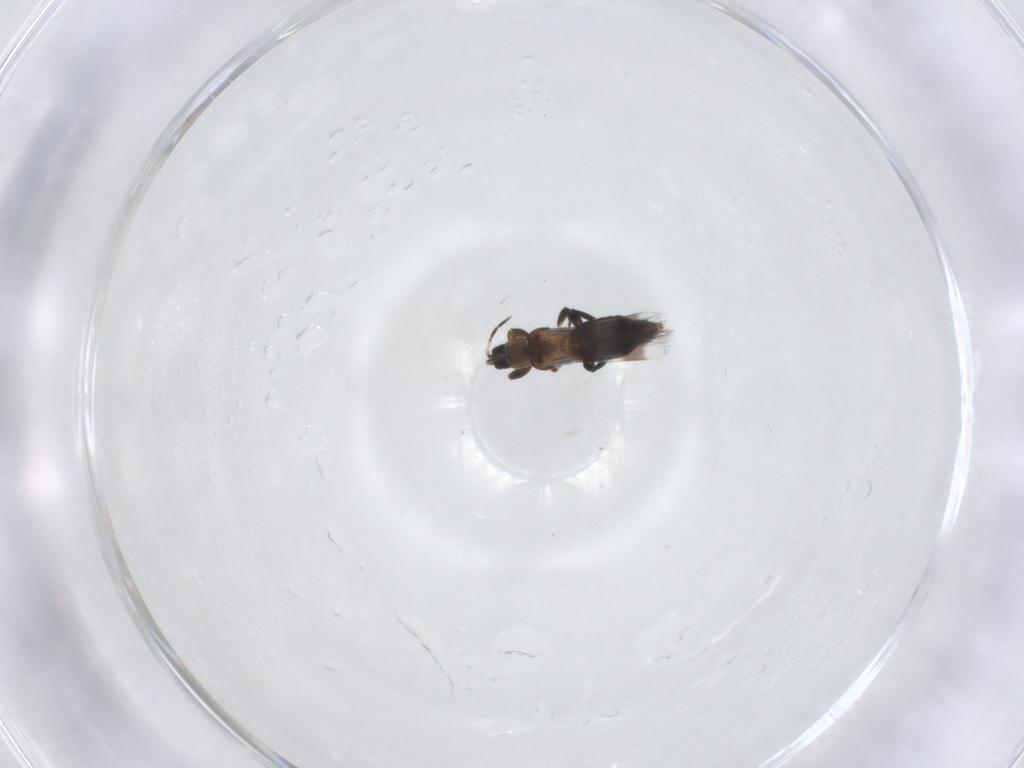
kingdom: Animalia
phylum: Arthropoda
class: Insecta
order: Thysanoptera
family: Aeolothripidae
